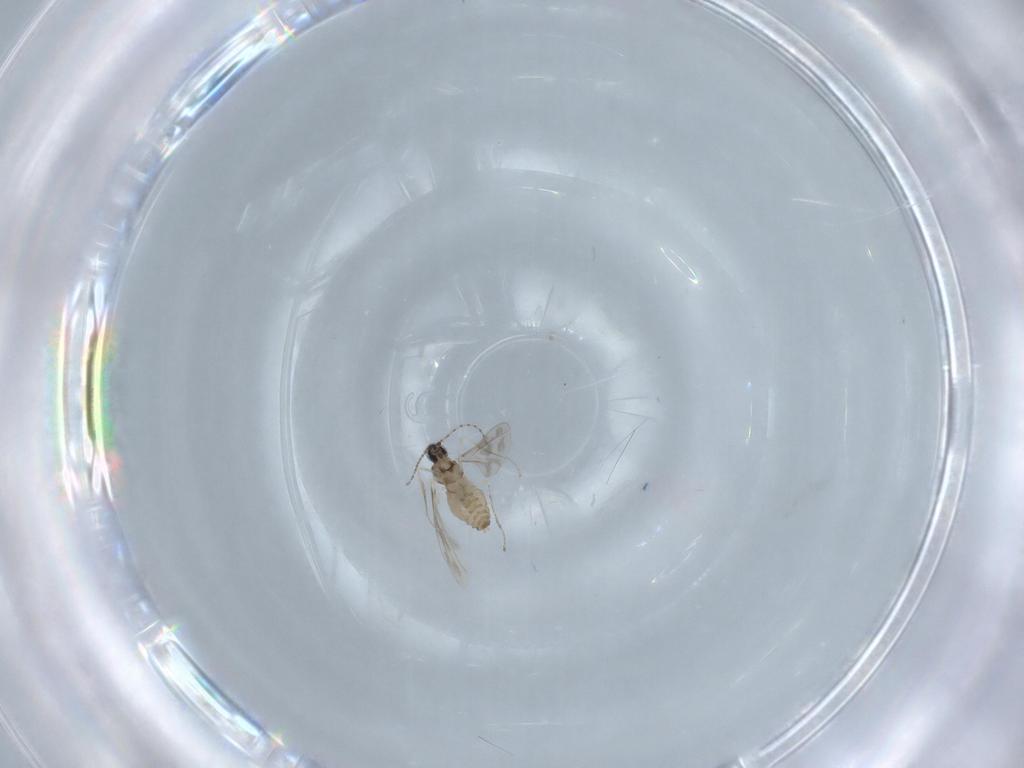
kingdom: Animalia
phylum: Arthropoda
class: Insecta
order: Diptera
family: Cecidomyiidae
